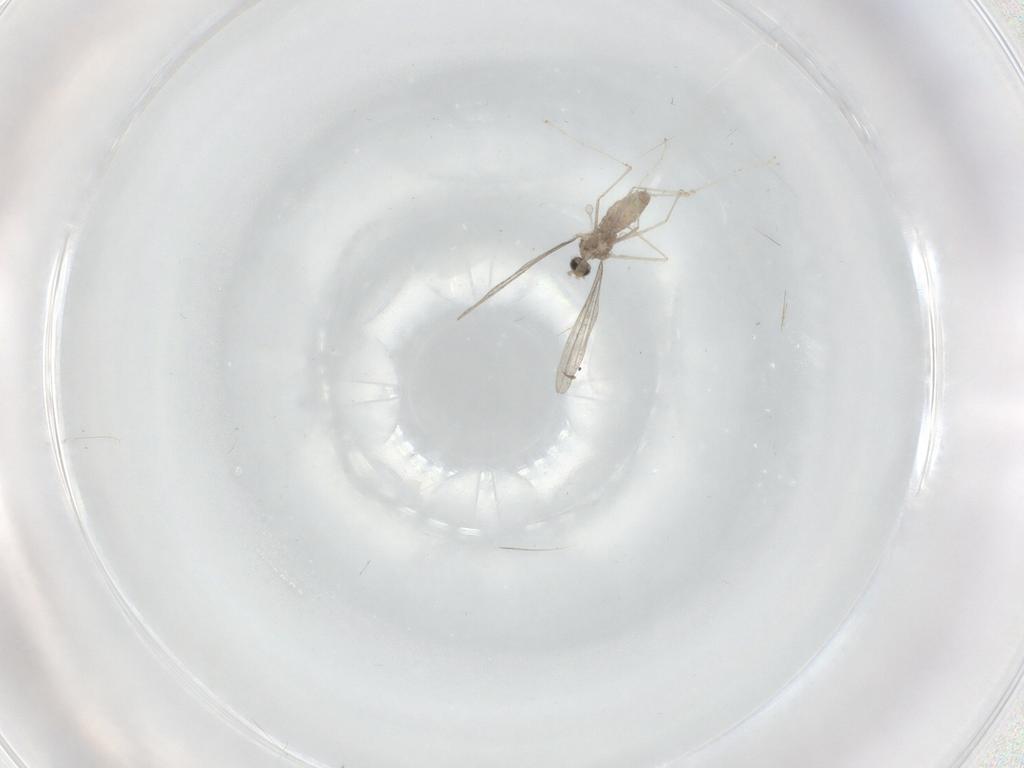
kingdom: Animalia
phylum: Arthropoda
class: Insecta
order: Diptera
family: Cecidomyiidae
